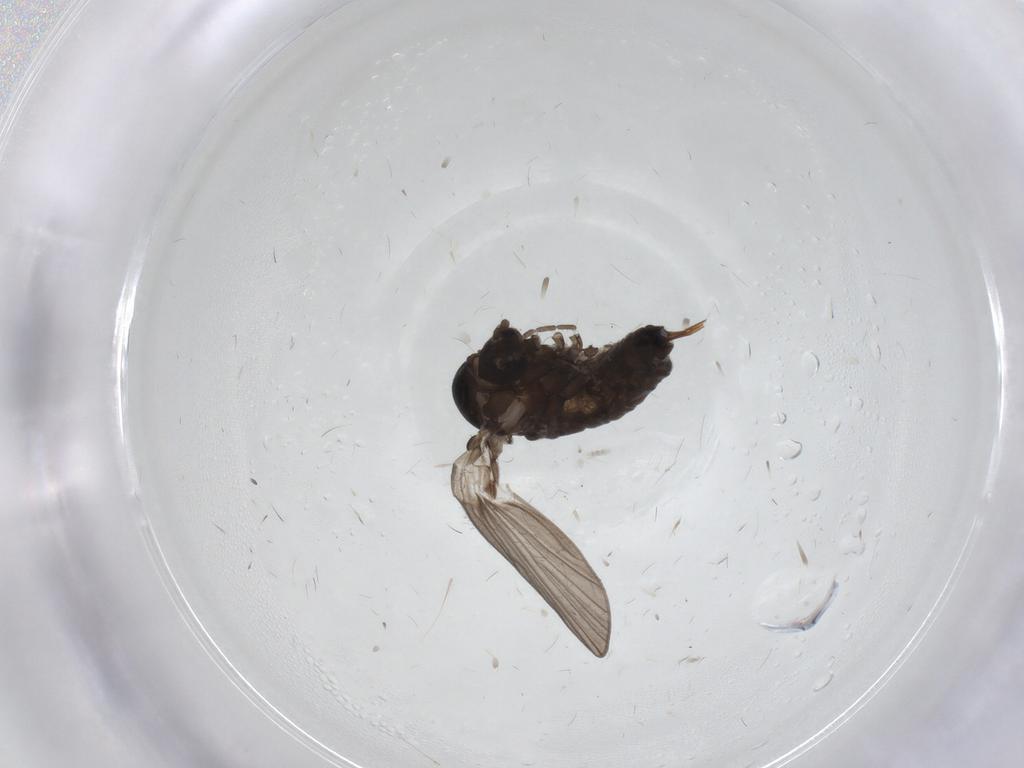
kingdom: Animalia
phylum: Arthropoda
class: Insecta
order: Diptera
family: Psychodidae
